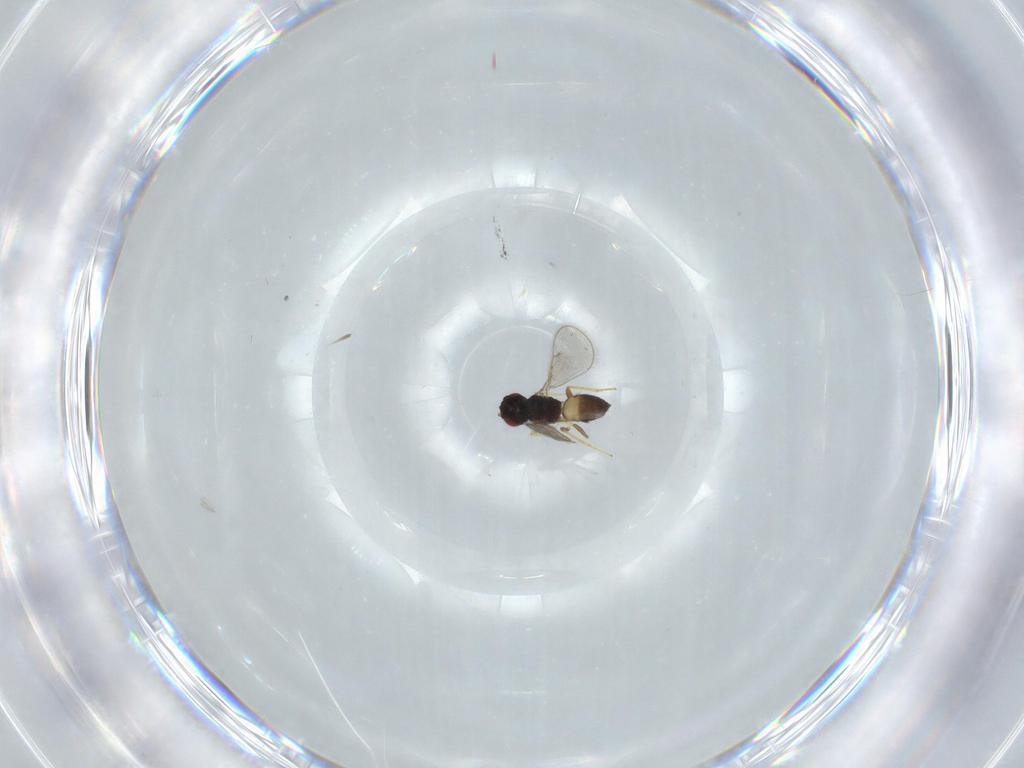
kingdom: Animalia
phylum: Arthropoda
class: Insecta
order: Hymenoptera
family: Braconidae
